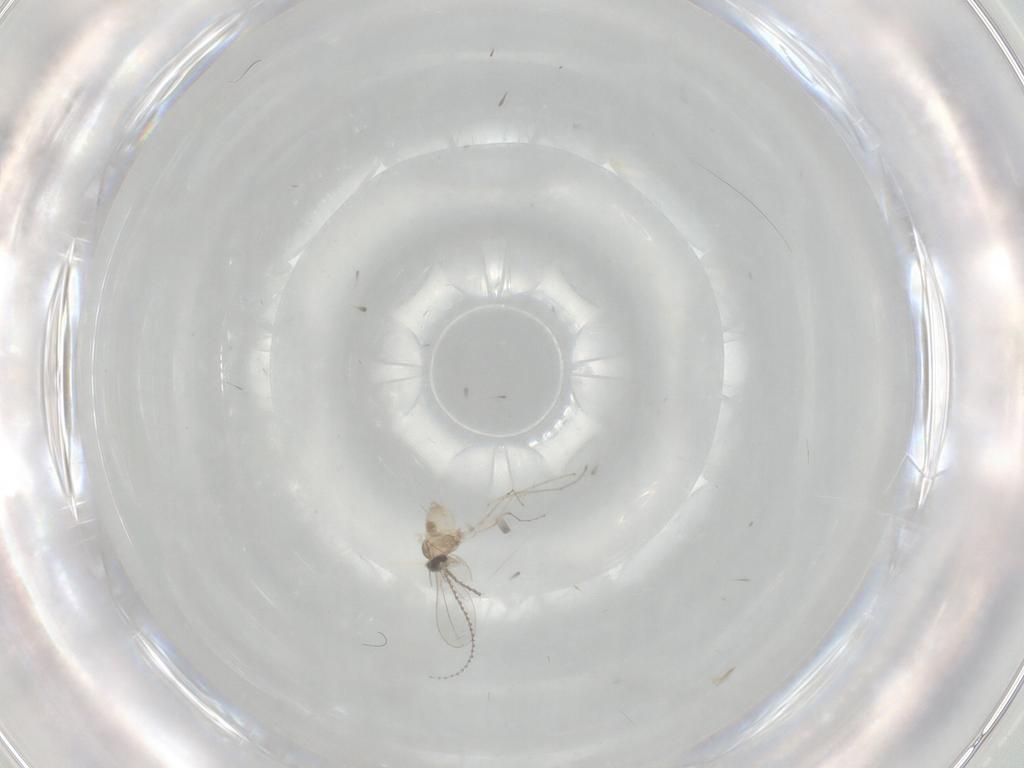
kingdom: Animalia
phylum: Arthropoda
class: Insecta
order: Diptera
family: Cecidomyiidae
